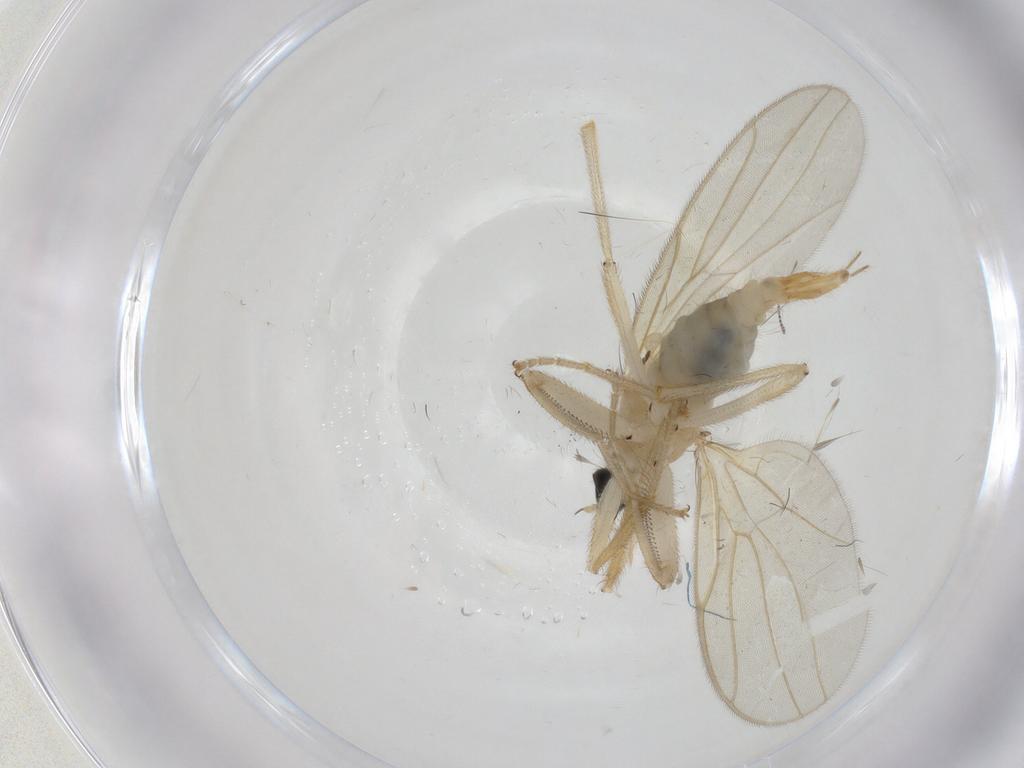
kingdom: Animalia
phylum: Arthropoda
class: Insecta
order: Diptera
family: Hybotidae
